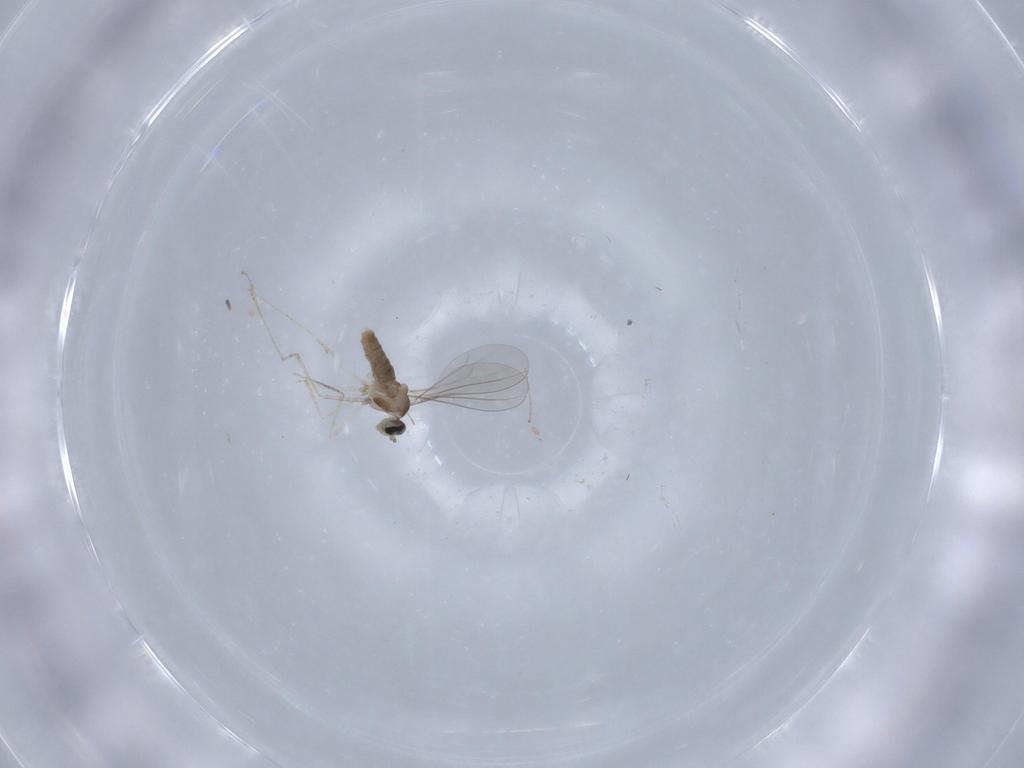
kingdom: Animalia
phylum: Arthropoda
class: Insecta
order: Diptera
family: Cecidomyiidae
